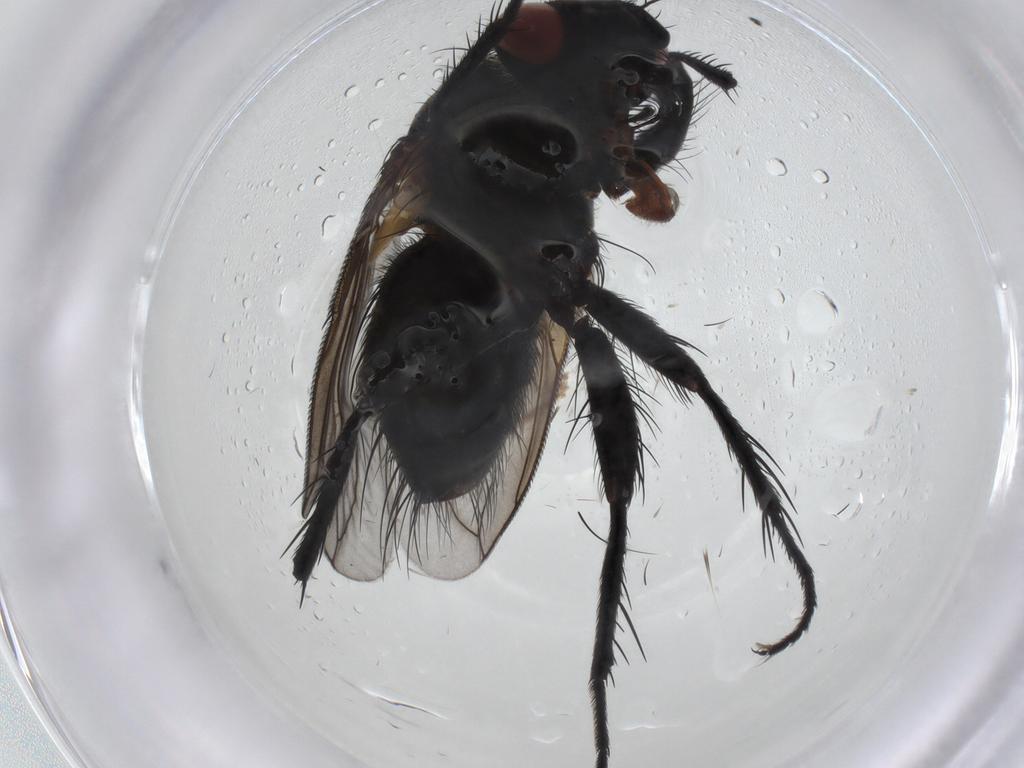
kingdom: Animalia
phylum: Arthropoda
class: Insecta
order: Diptera
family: Tachinidae
